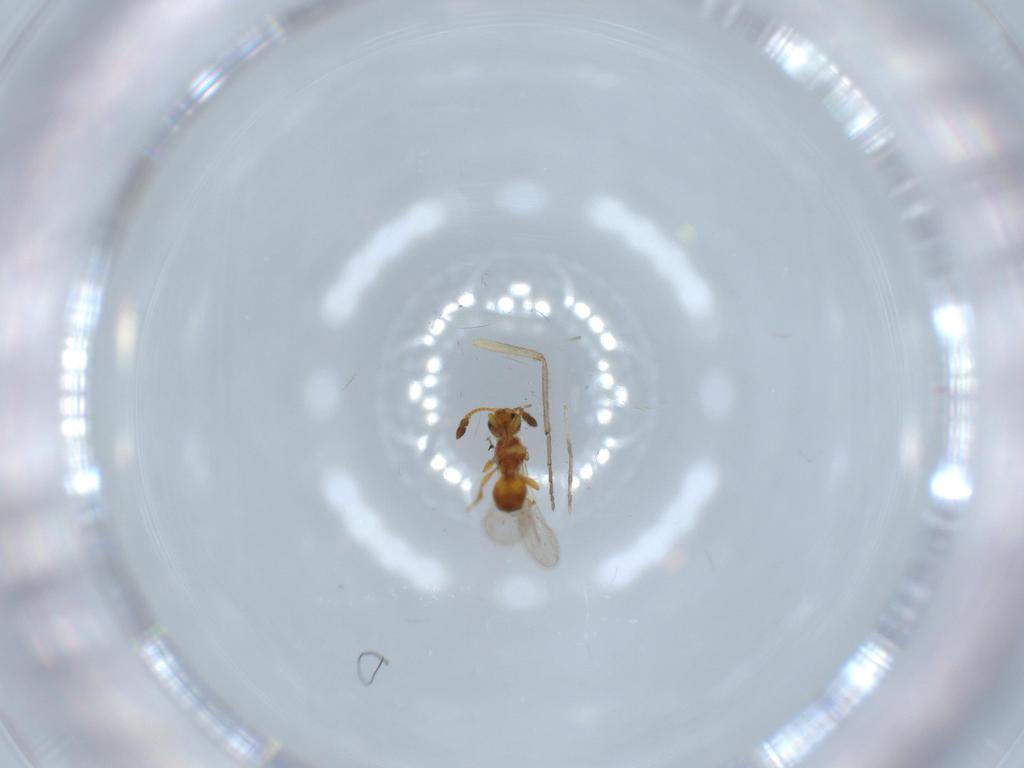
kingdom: Animalia
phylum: Arthropoda
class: Insecta
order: Hymenoptera
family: Diapriidae
